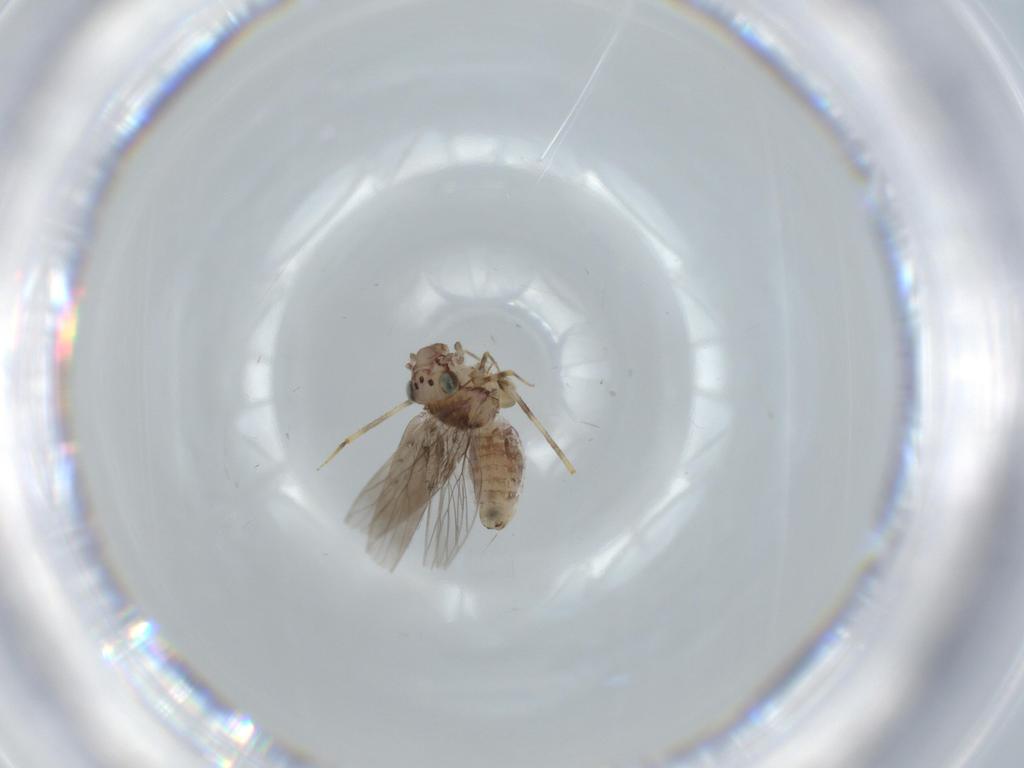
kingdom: Animalia
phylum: Arthropoda
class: Insecta
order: Psocodea
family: Lepidopsocidae
